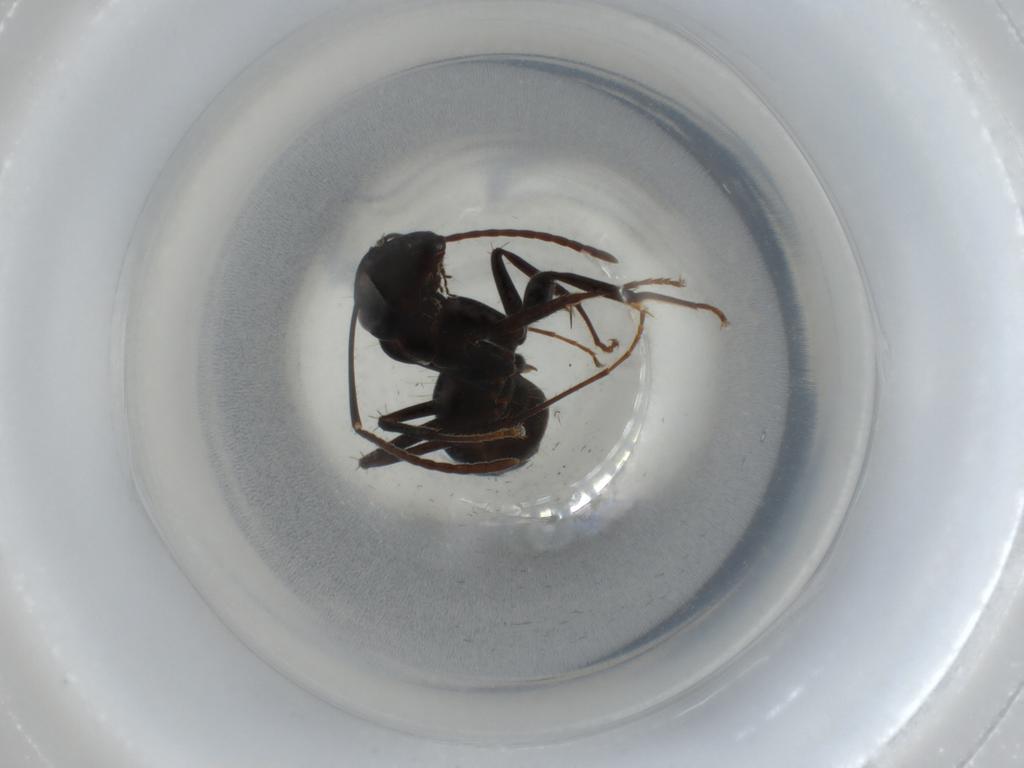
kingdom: Animalia
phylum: Arthropoda
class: Insecta
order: Hymenoptera
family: Formicidae
